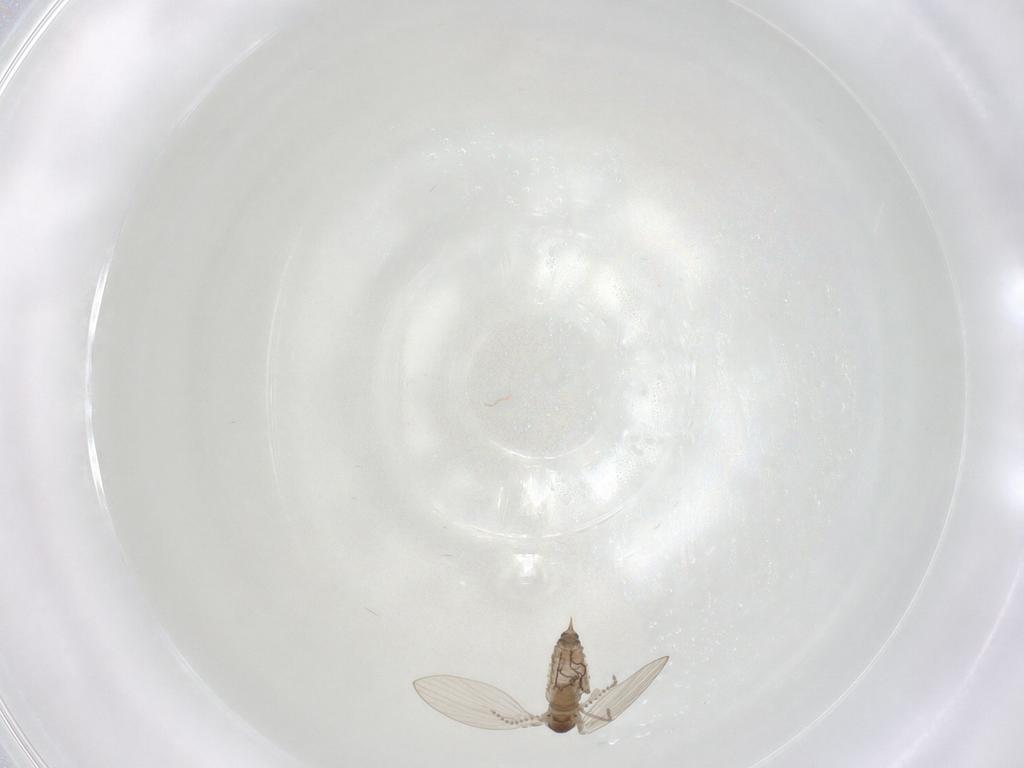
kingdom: Animalia
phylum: Arthropoda
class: Insecta
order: Diptera
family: Psychodidae
